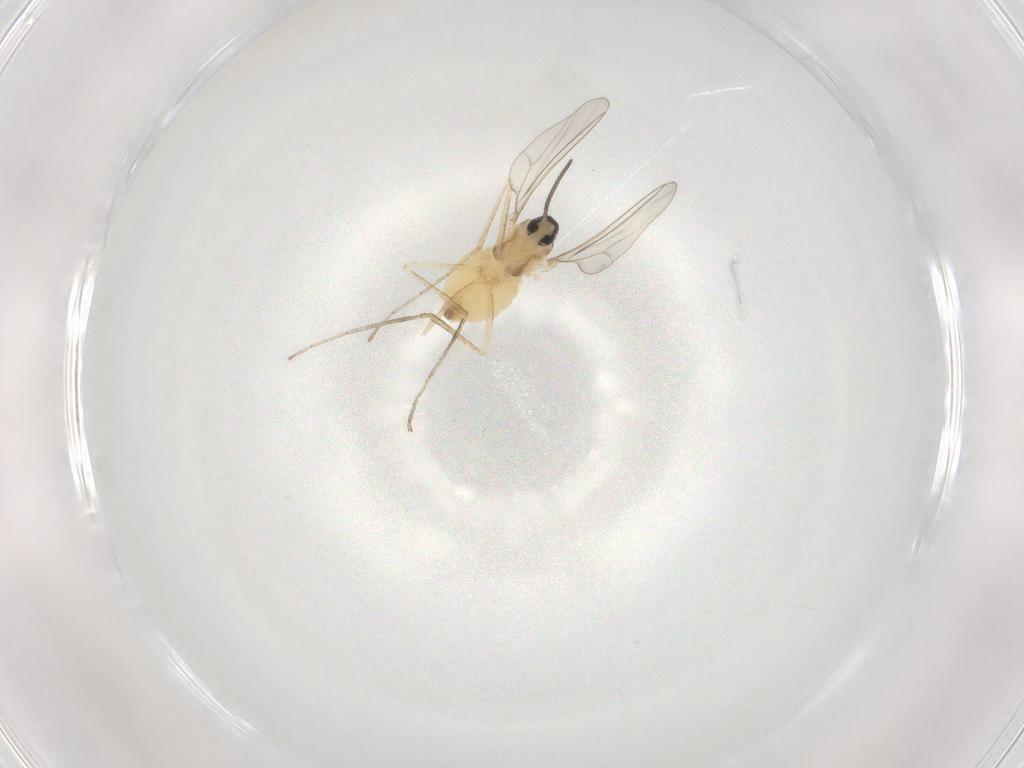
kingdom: Animalia
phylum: Arthropoda
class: Insecta
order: Diptera
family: Cecidomyiidae
